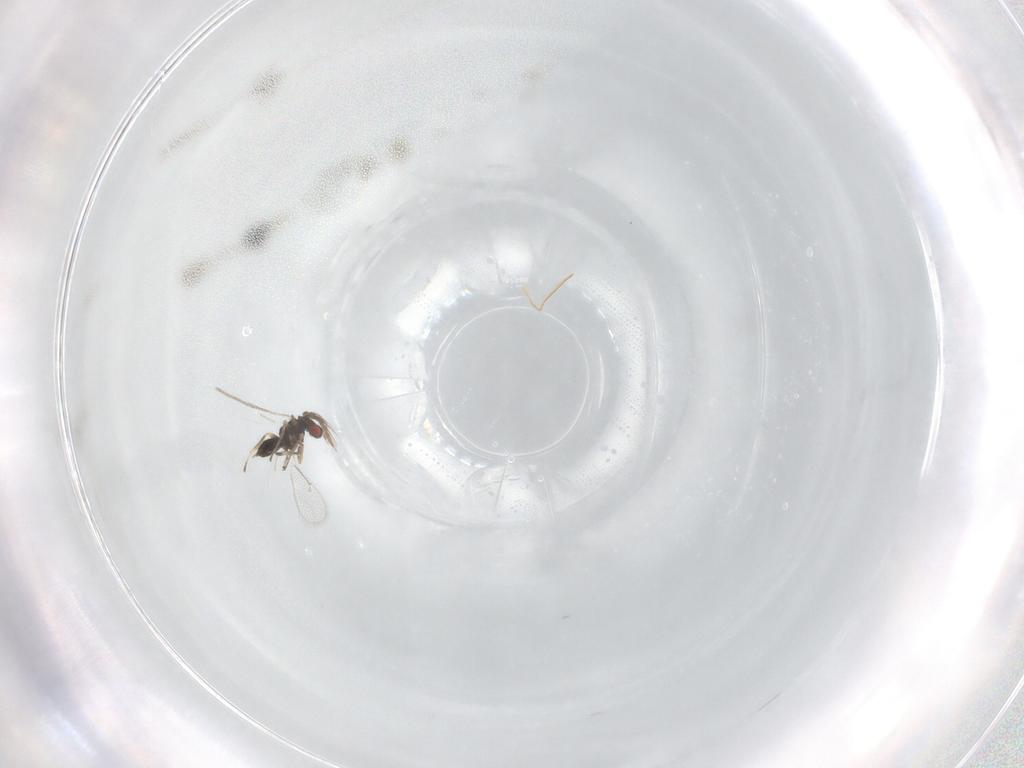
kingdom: Animalia
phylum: Arthropoda
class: Insecta
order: Hymenoptera
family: Eulophidae
